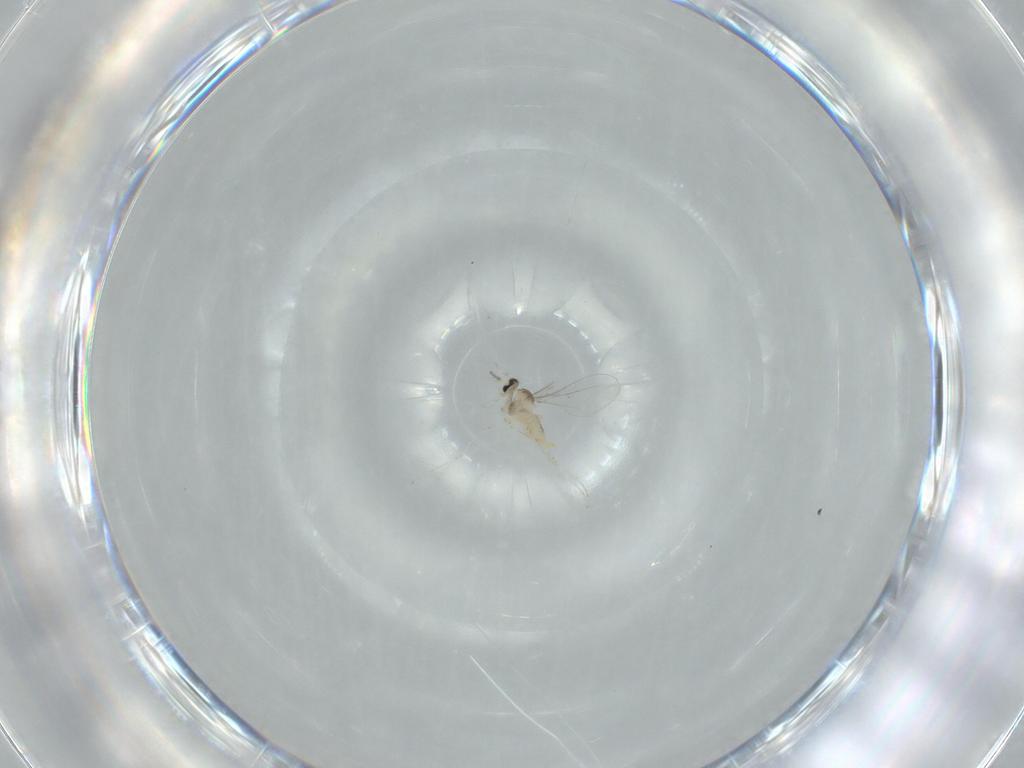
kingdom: Animalia
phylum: Arthropoda
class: Insecta
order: Diptera
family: Cecidomyiidae
